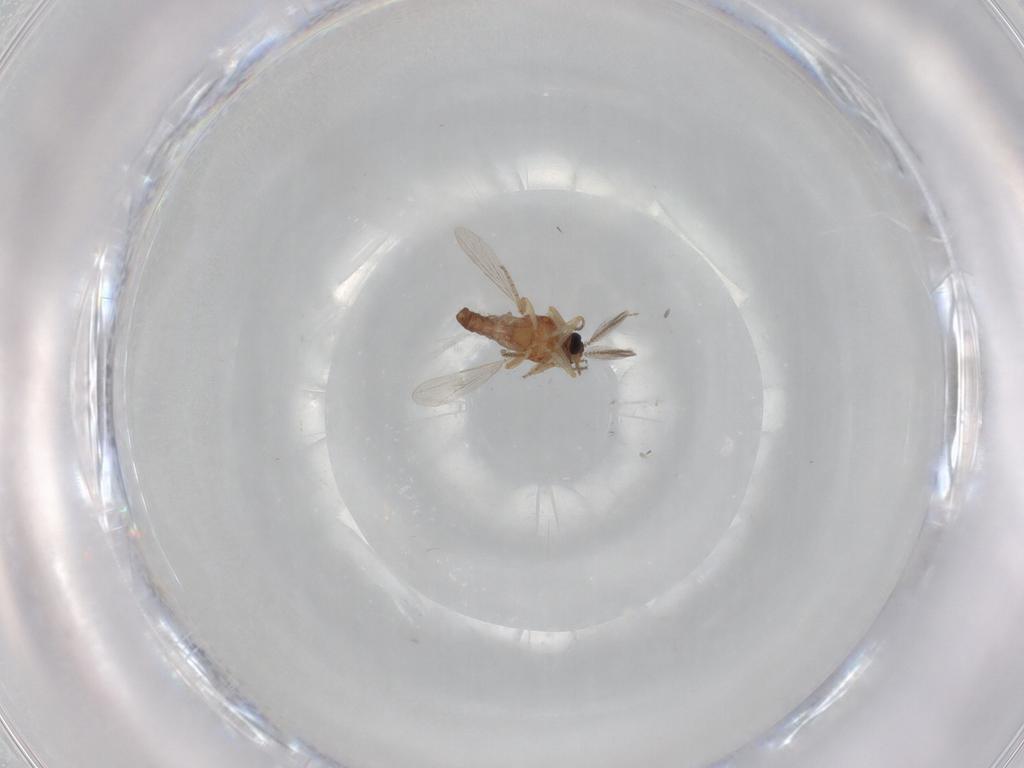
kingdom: Animalia
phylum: Arthropoda
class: Insecta
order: Diptera
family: Ceratopogonidae
